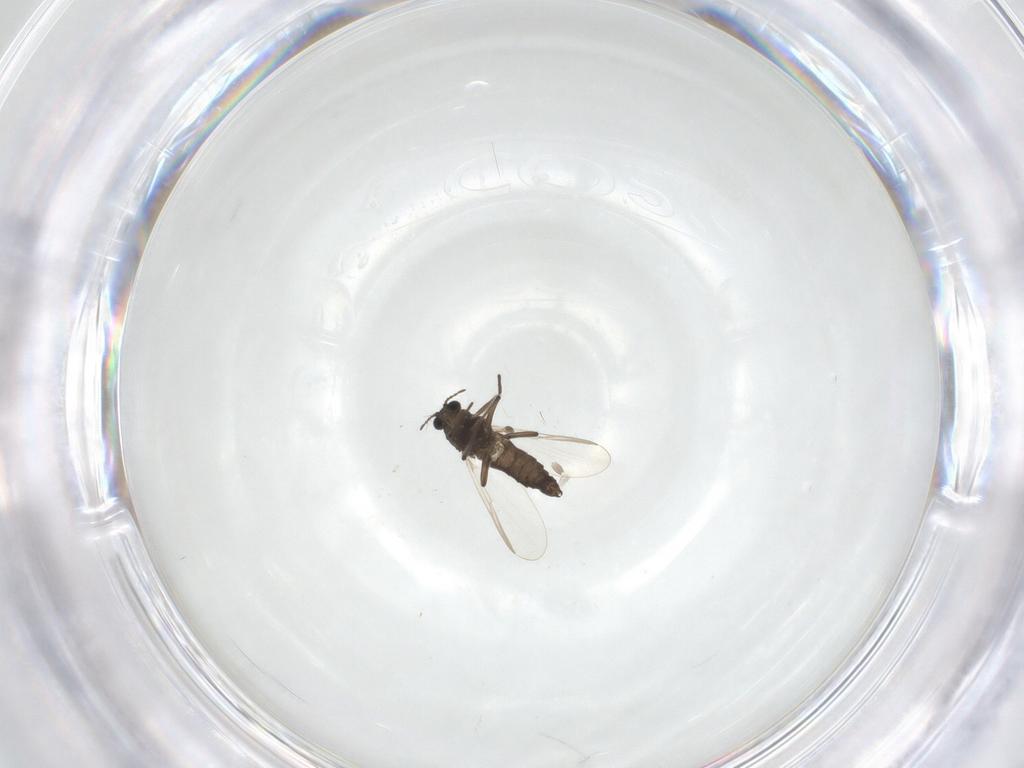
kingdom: Animalia
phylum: Arthropoda
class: Insecta
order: Diptera
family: Chironomidae
